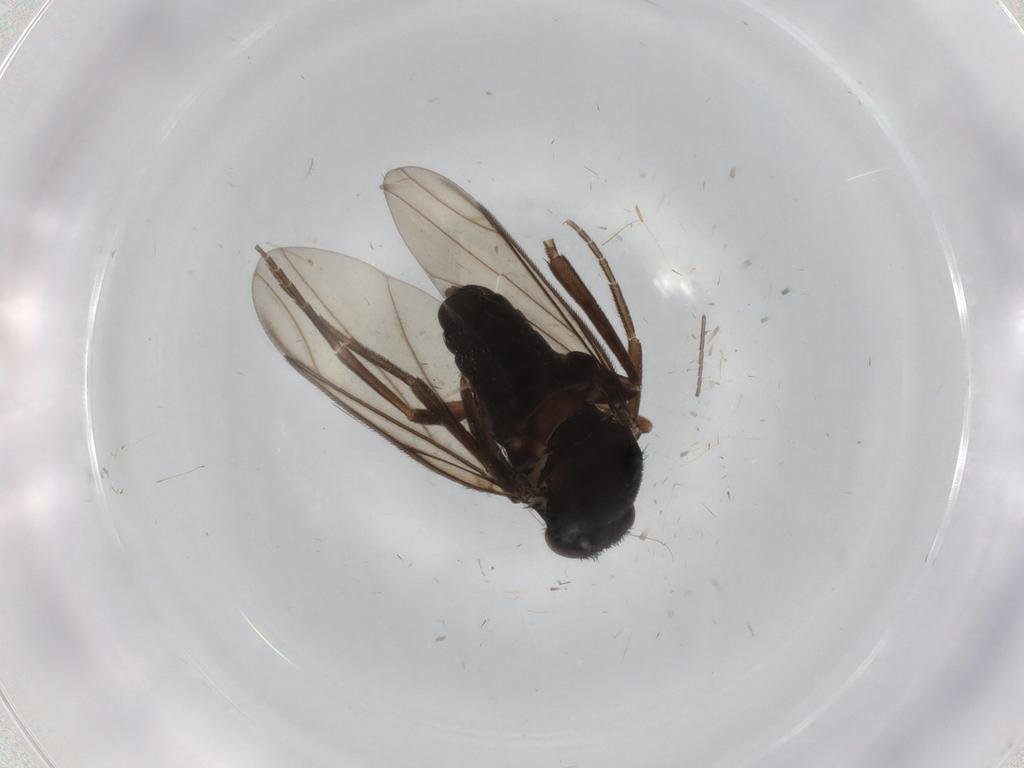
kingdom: Animalia
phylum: Arthropoda
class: Insecta
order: Diptera
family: Phoridae
